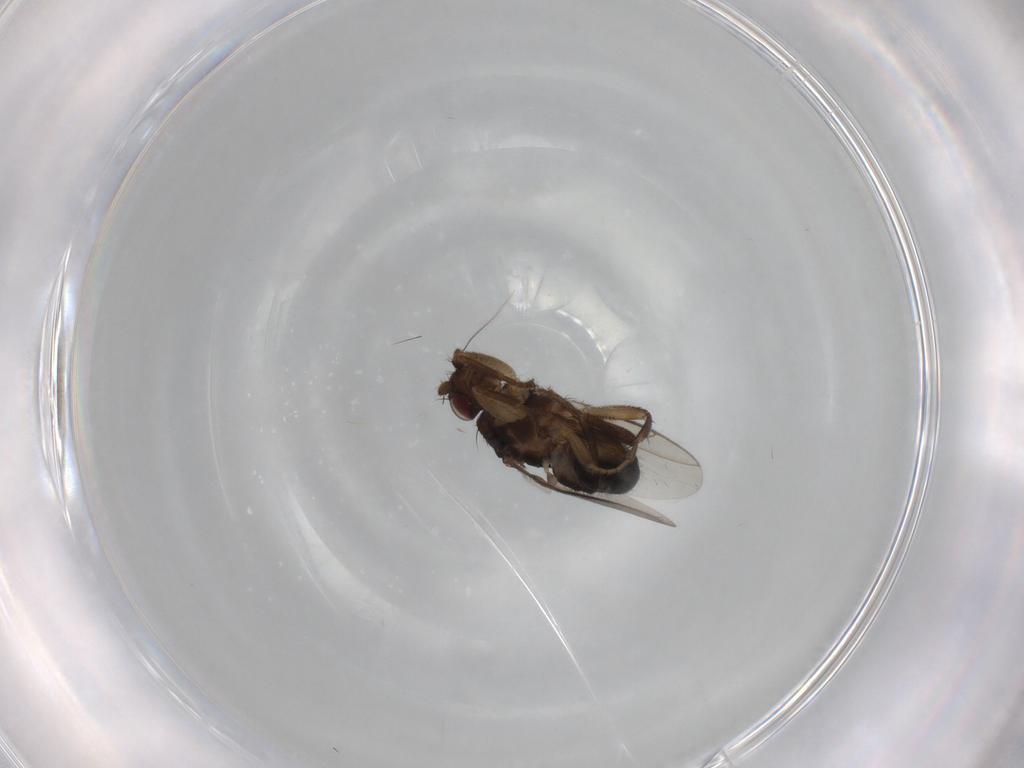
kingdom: Animalia
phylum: Arthropoda
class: Insecta
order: Diptera
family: Sphaeroceridae
